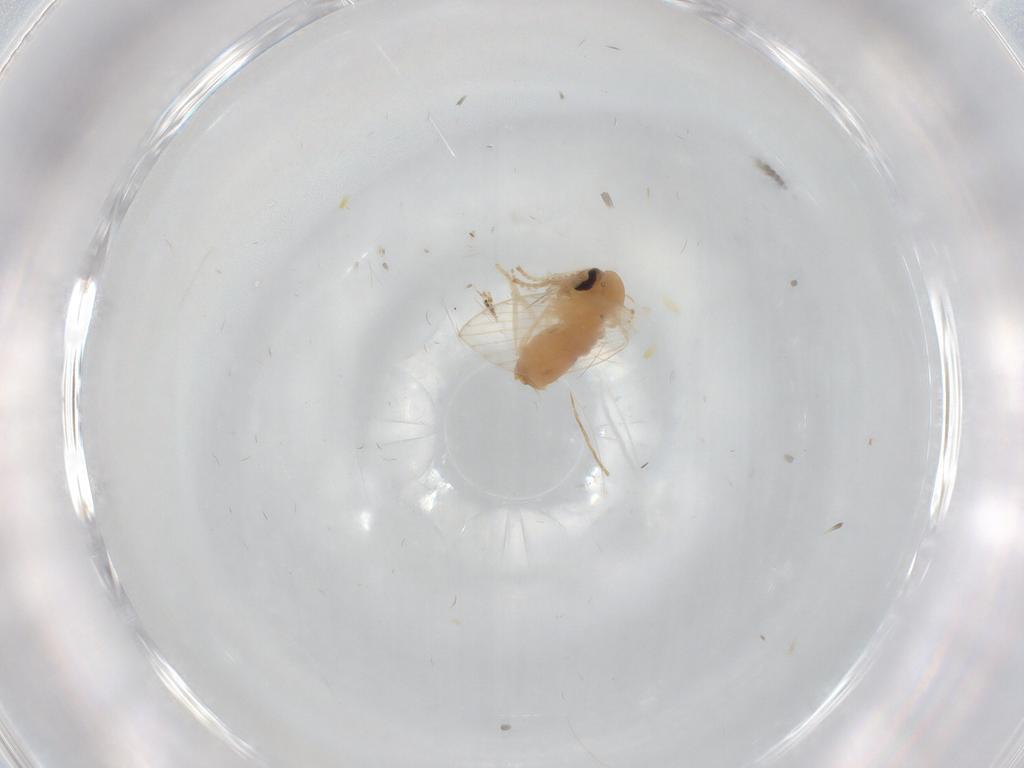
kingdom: Animalia
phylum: Arthropoda
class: Insecta
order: Diptera
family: Psychodidae
